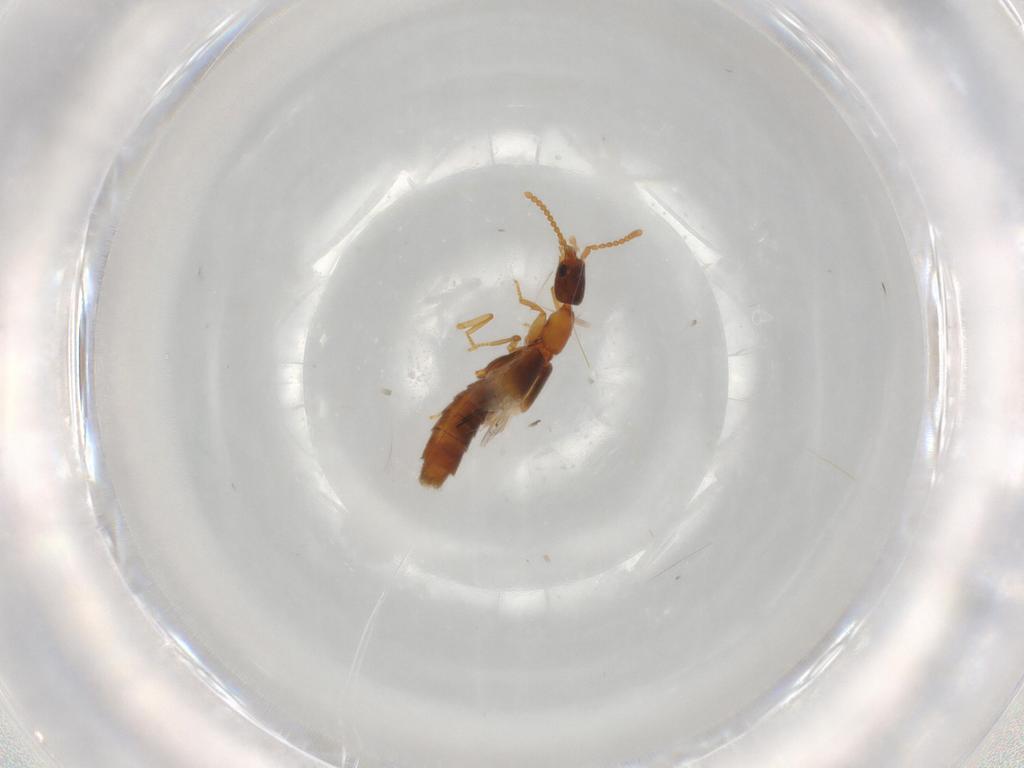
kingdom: Animalia
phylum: Arthropoda
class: Insecta
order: Coleoptera
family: Staphylinidae
